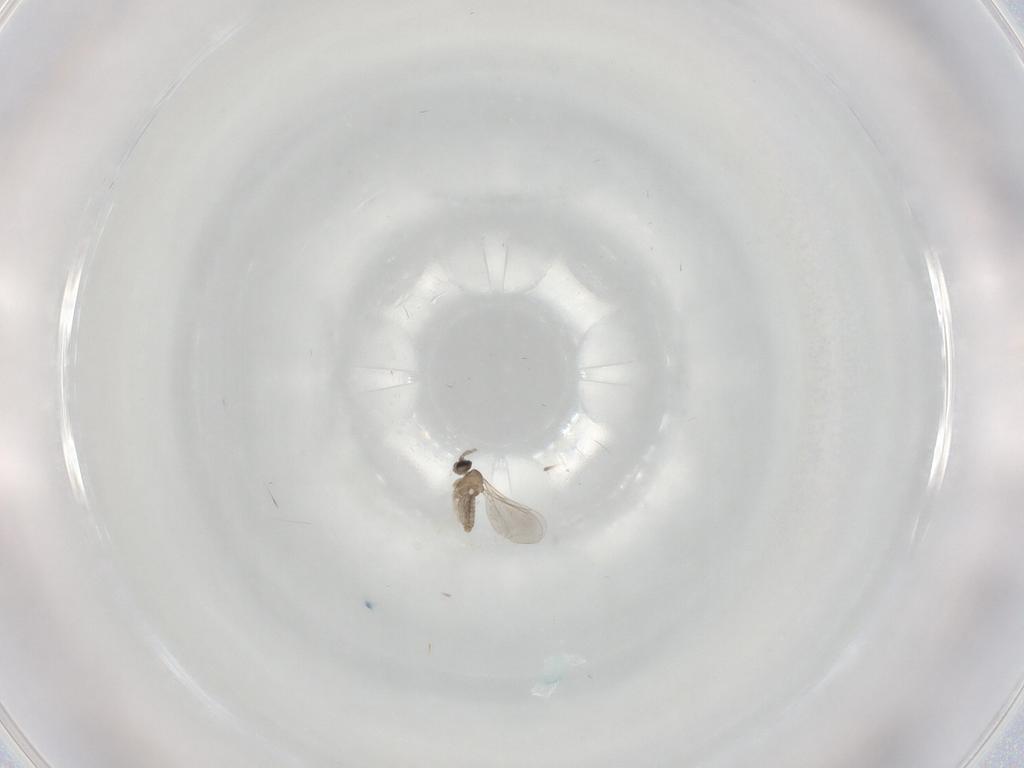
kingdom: Animalia
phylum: Arthropoda
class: Insecta
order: Diptera
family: Cecidomyiidae
